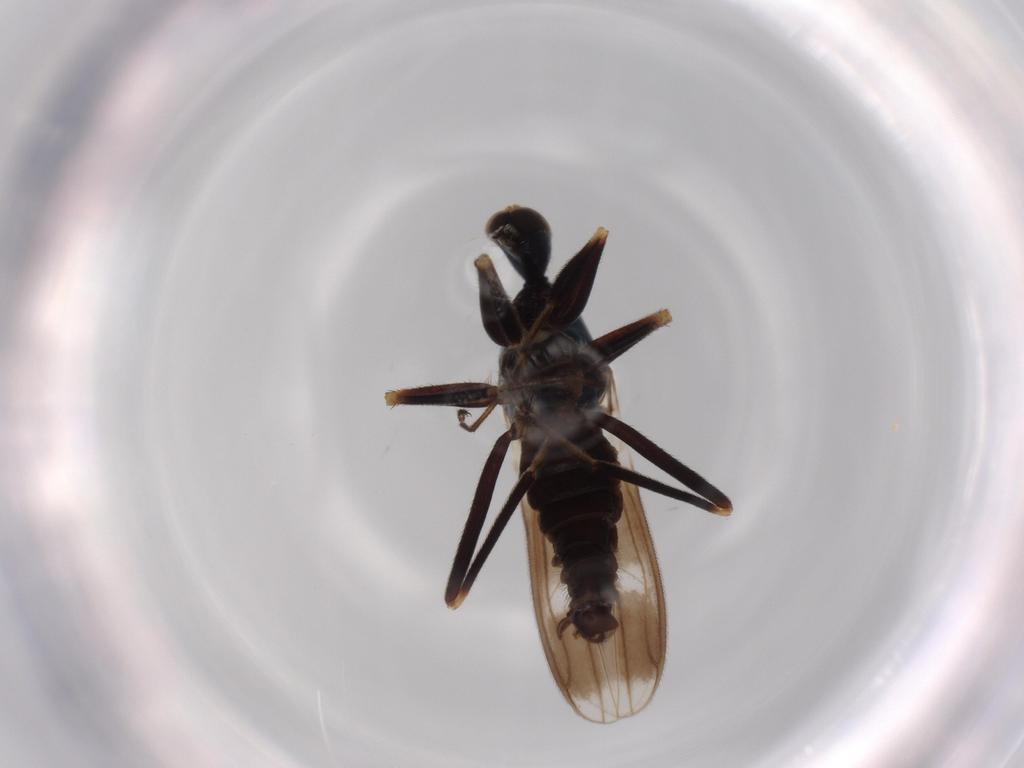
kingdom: Animalia
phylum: Arthropoda
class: Insecta
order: Diptera
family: Hybotidae
